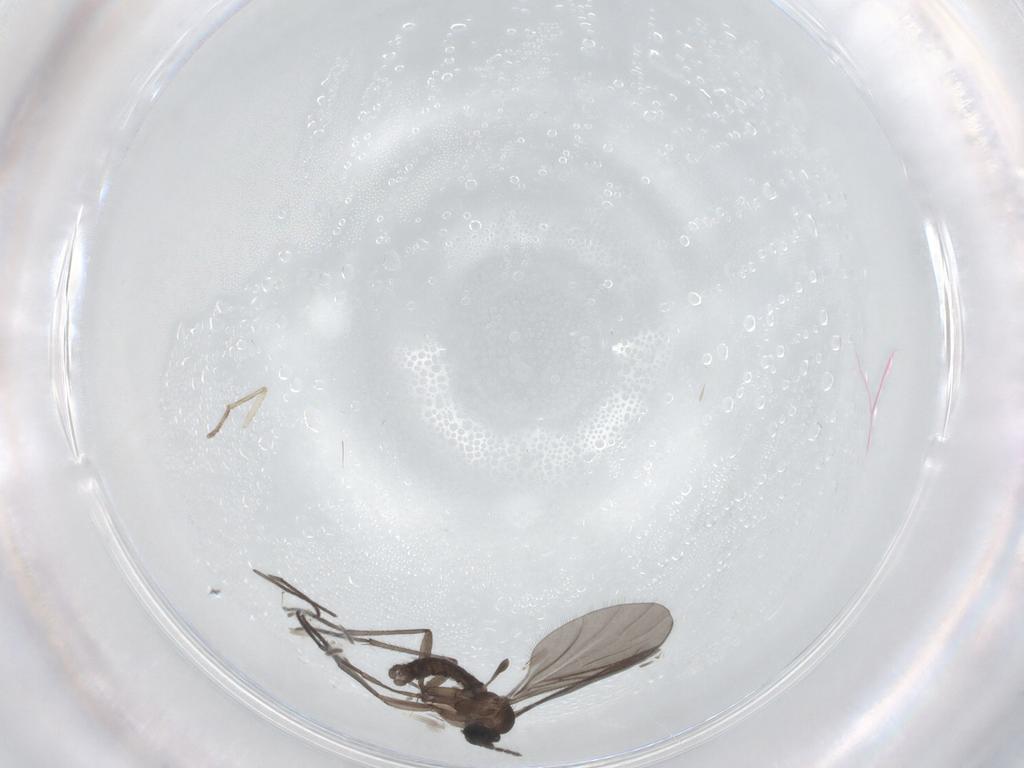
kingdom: Animalia
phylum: Arthropoda
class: Insecta
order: Diptera
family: Sciaridae
